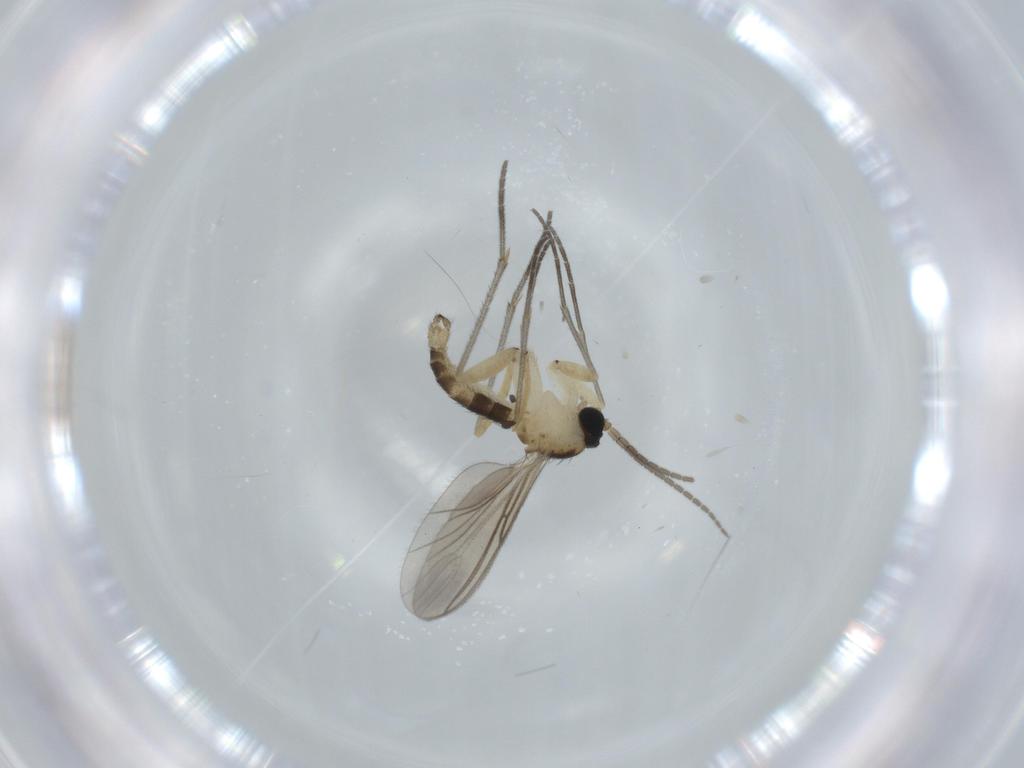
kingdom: Animalia
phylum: Arthropoda
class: Insecta
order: Diptera
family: Sciaridae
